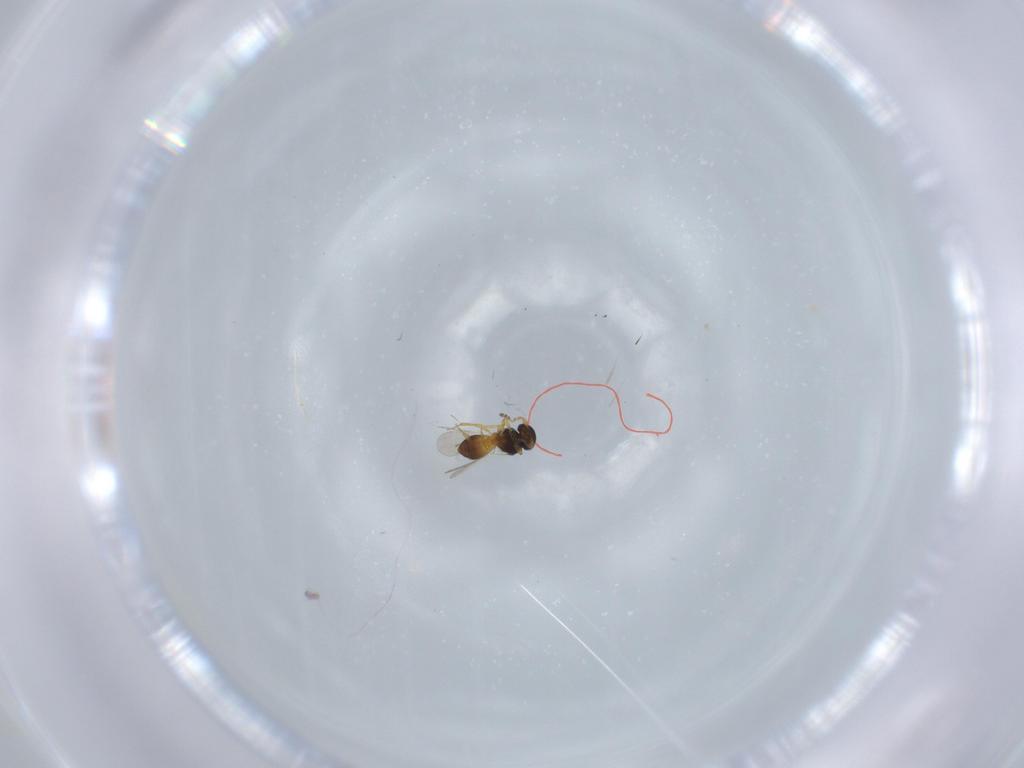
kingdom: Animalia
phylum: Arthropoda
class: Insecta
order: Hymenoptera
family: Platygastridae
